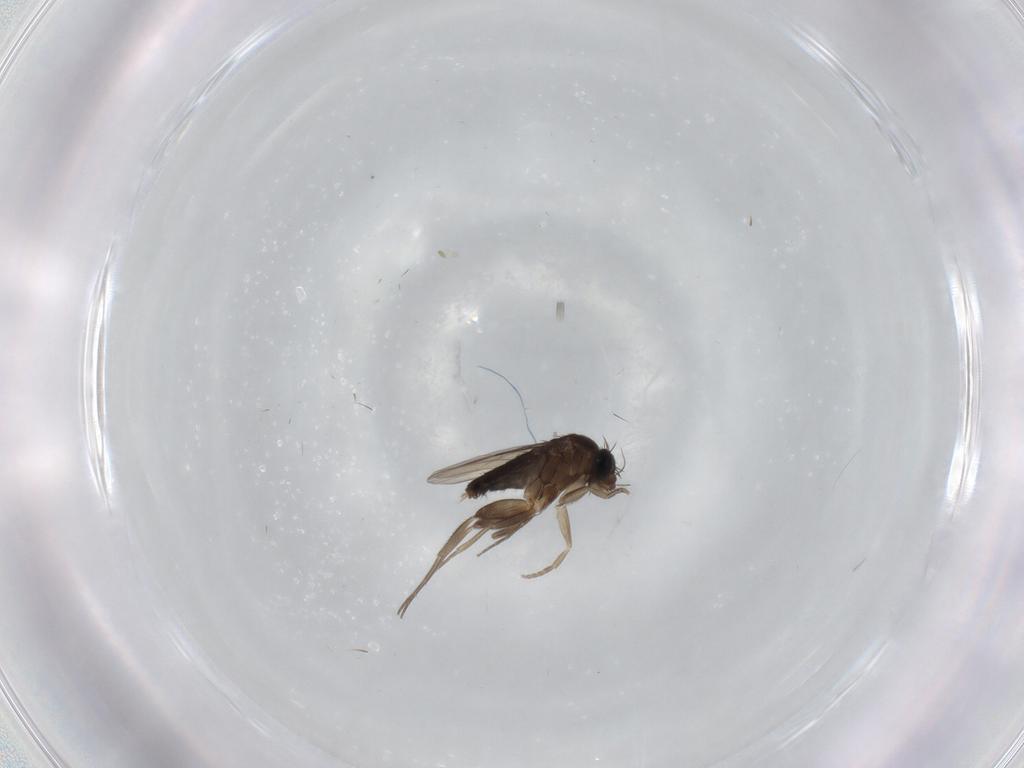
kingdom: Animalia
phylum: Arthropoda
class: Insecta
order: Diptera
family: Phoridae
